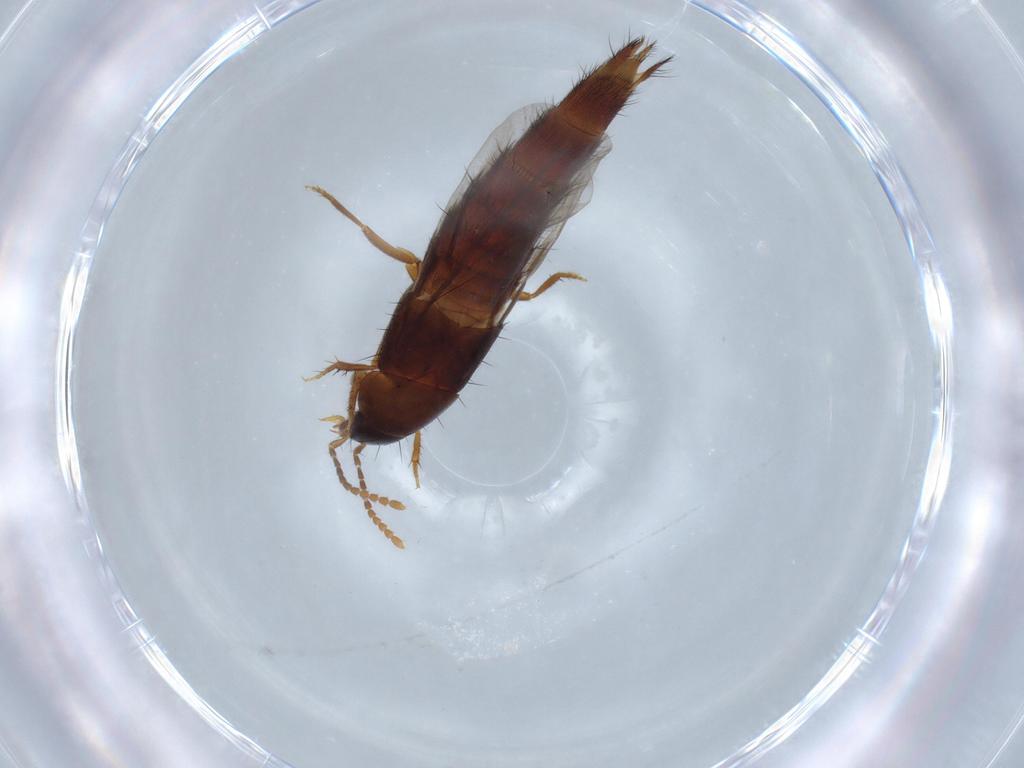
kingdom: Animalia
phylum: Arthropoda
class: Insecta
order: Coleoptera
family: Staphylinidae
